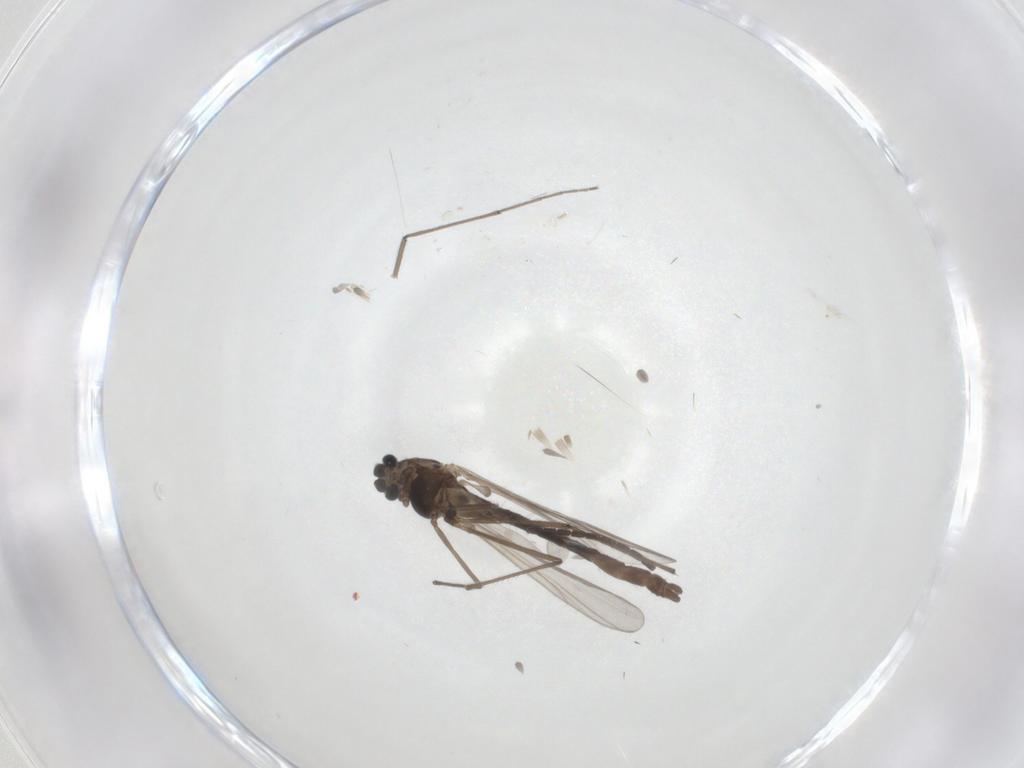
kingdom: Animalia
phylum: Arthropoda
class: Insecta
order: Diptera
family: Chironomidae
